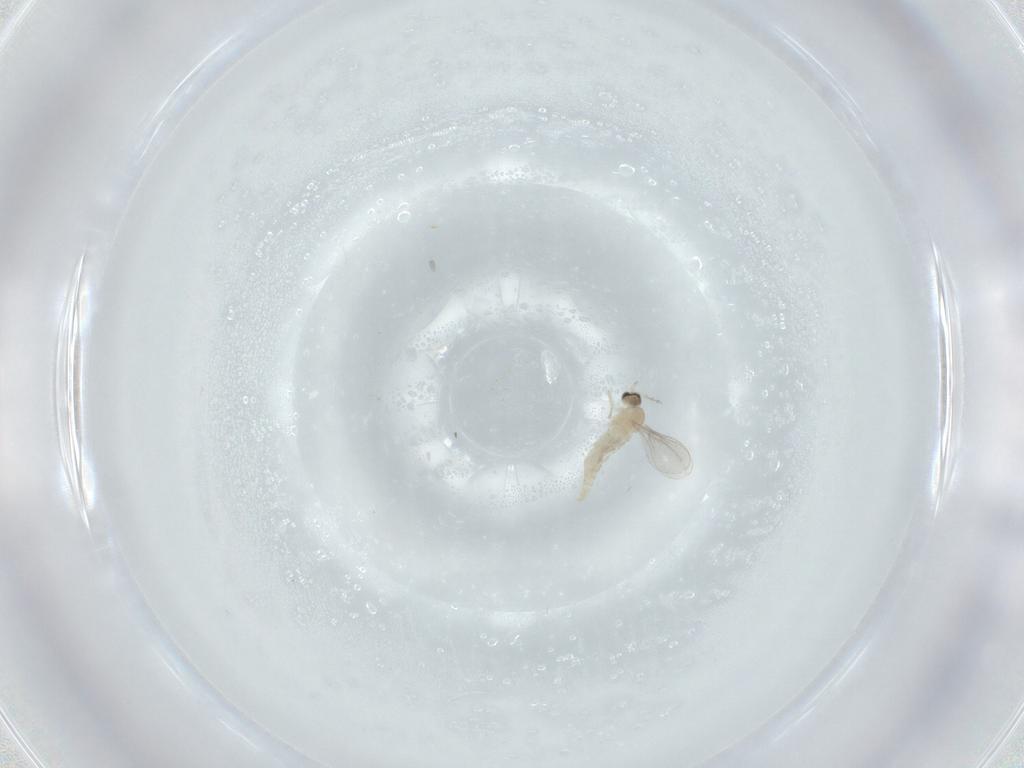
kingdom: Animalia
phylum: Arthropoda
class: Insecta
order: Diptera
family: Cecidomyiidae
